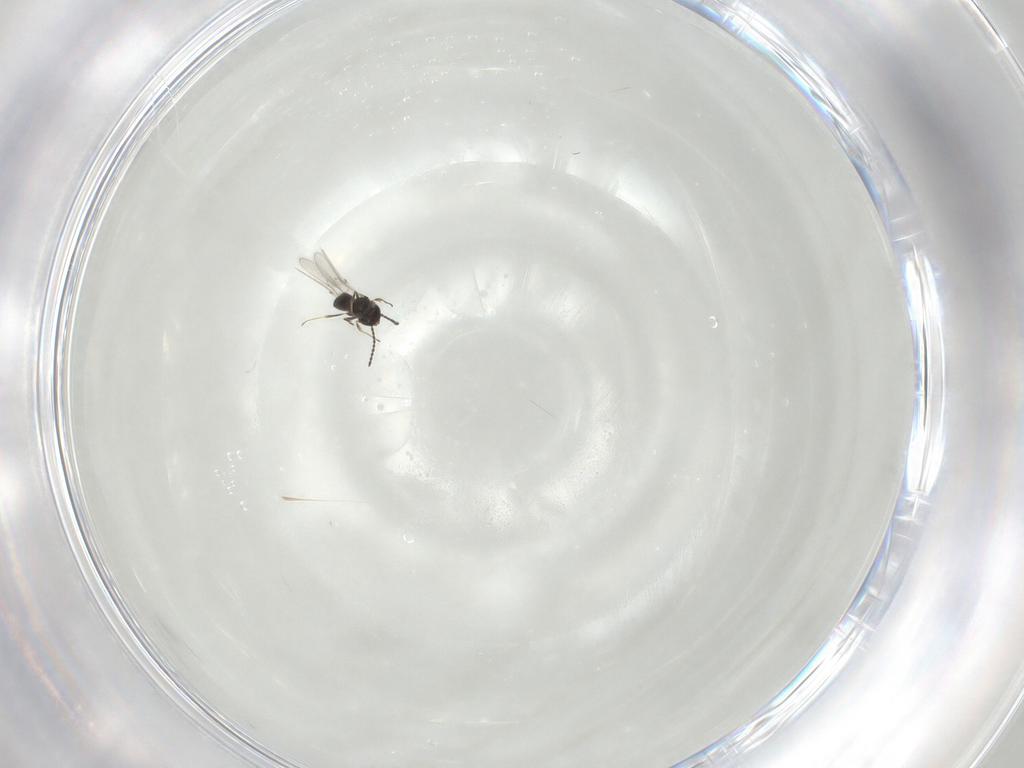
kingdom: Animalia
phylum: Arthropoda
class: Insecta
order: Hymenoptera
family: Scelionidae
